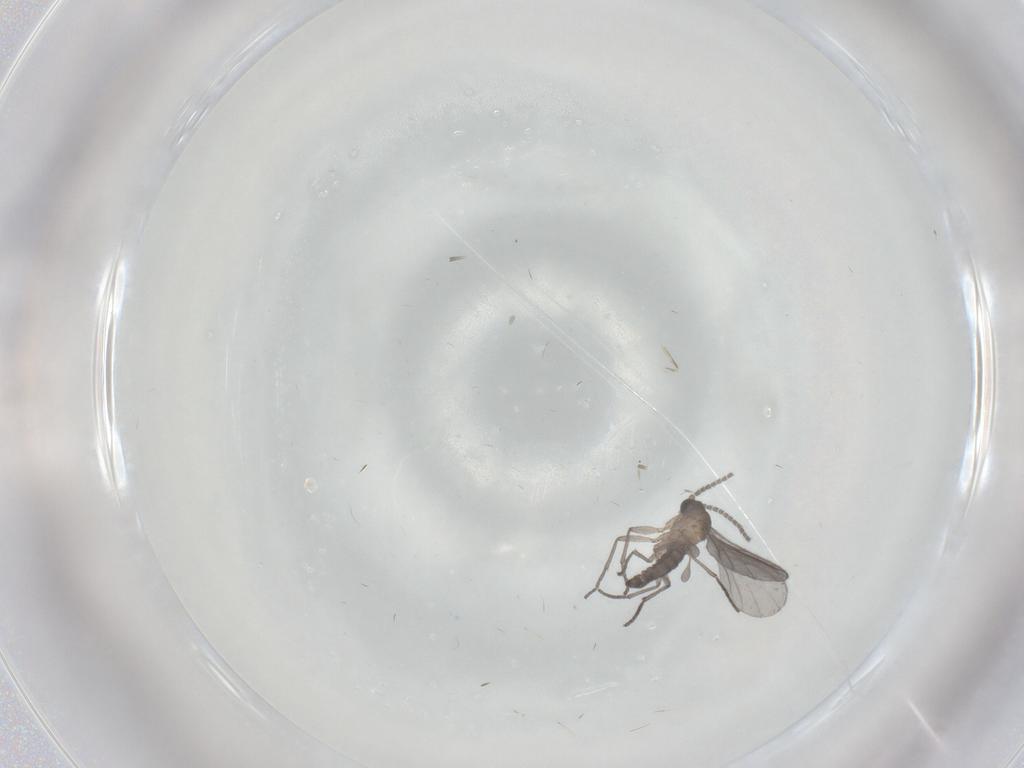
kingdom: Animalia
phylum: Arthropoda
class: Insecta
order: Diptera
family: Sciaridae
